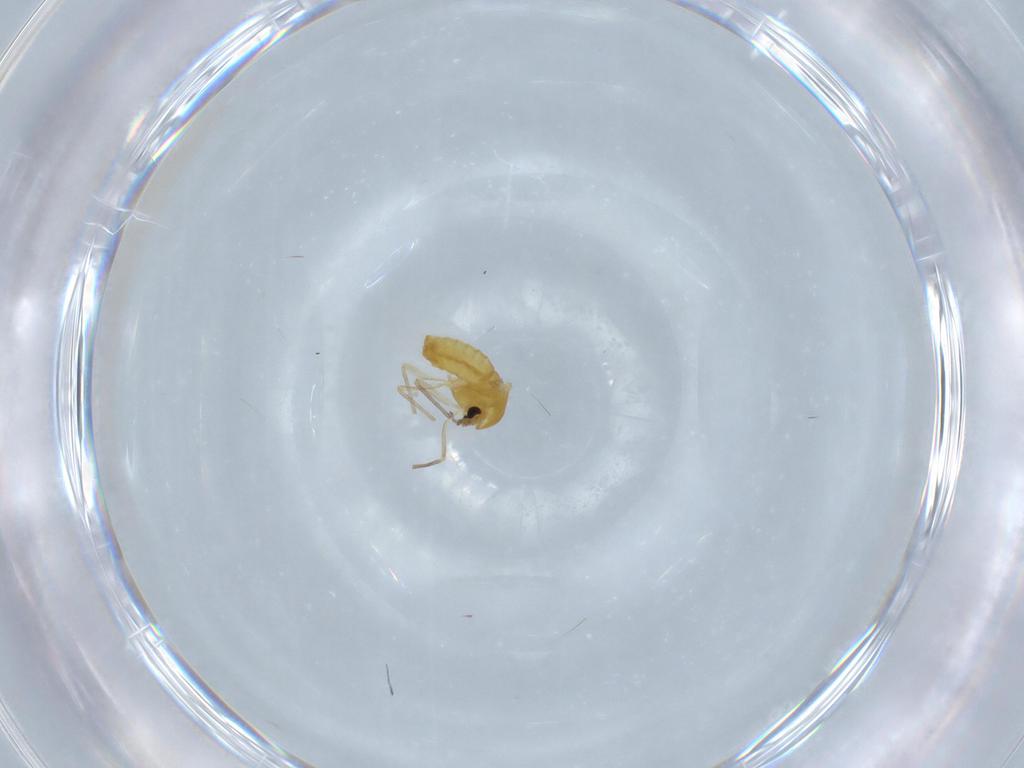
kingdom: Animalia
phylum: Arthropoda
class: Insecta
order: Diptera
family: Chironomidae
